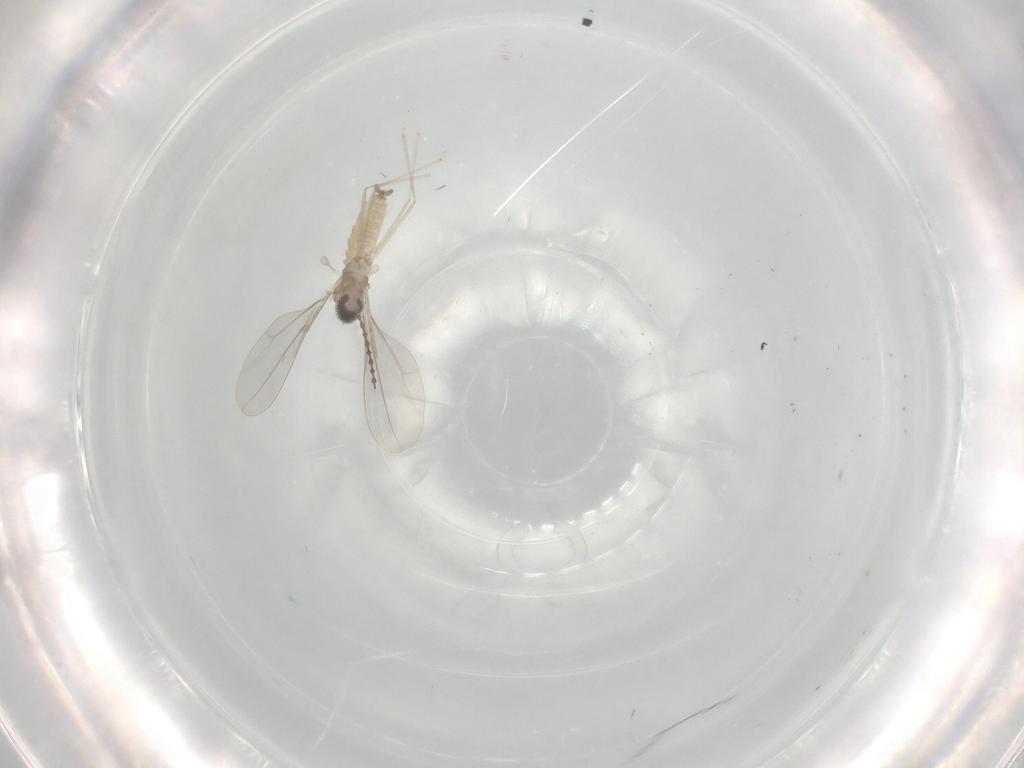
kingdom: Animalia
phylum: Arthropoda
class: Insecta
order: Diptera
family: Cecidomyiidae
